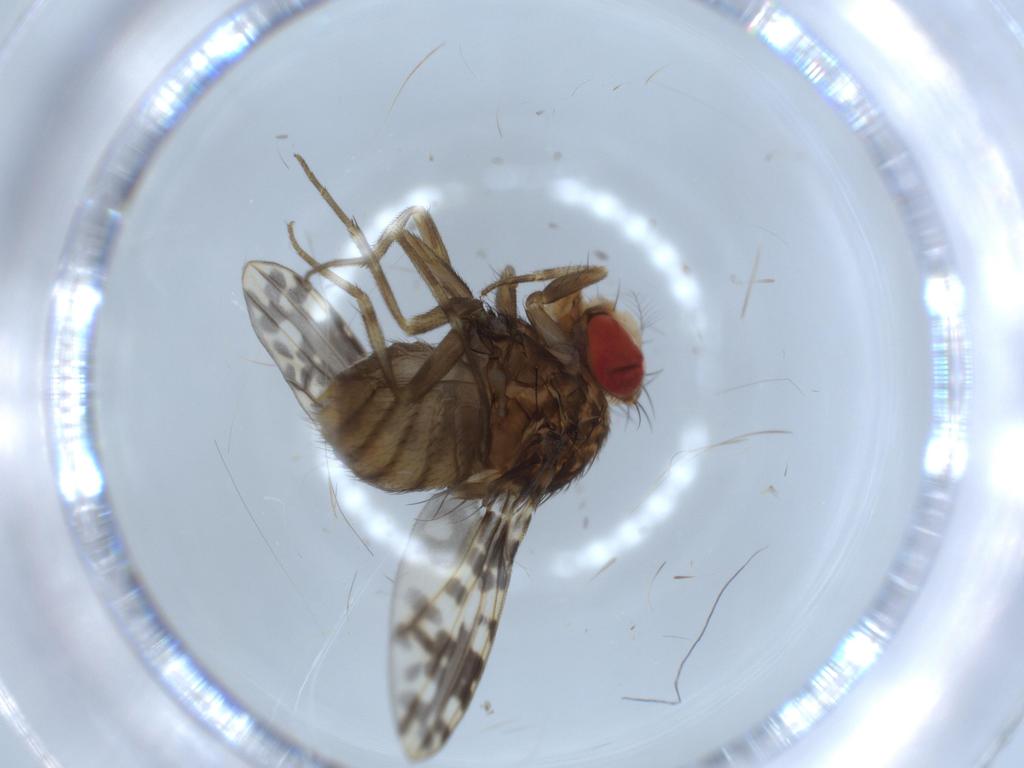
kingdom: Animalia
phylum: Arthropoda
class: Insecta
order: Diptera
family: Drosophilidae
